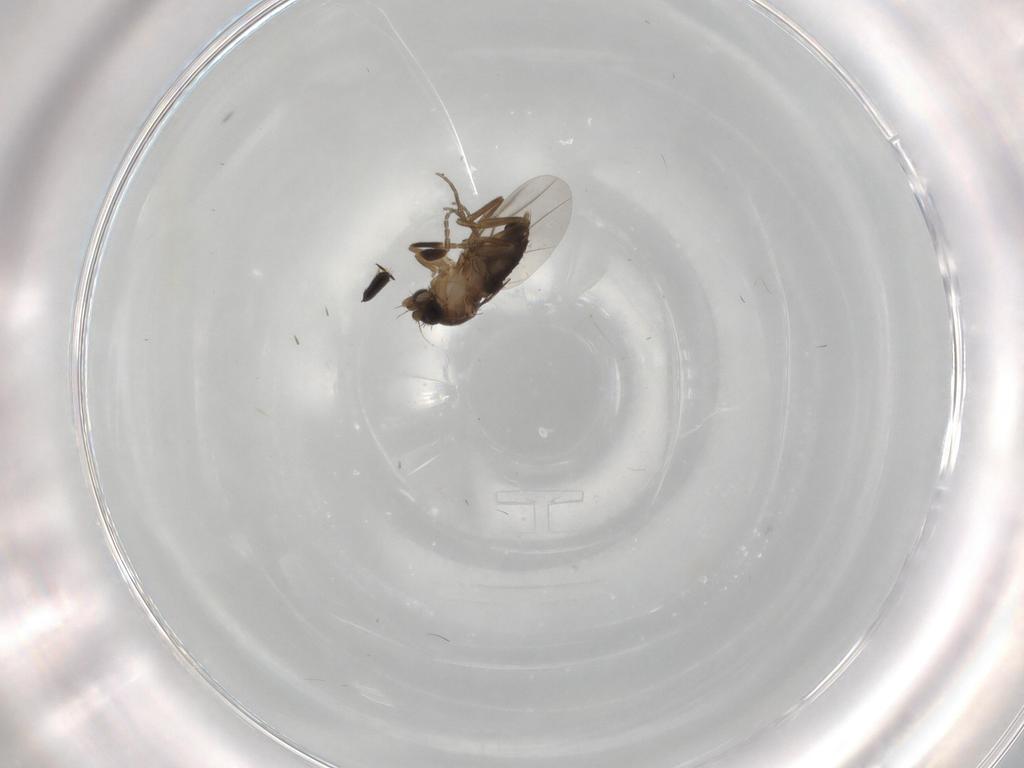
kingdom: Animalia
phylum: Arthropoda
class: Insecta
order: Diptera
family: Phoridae
